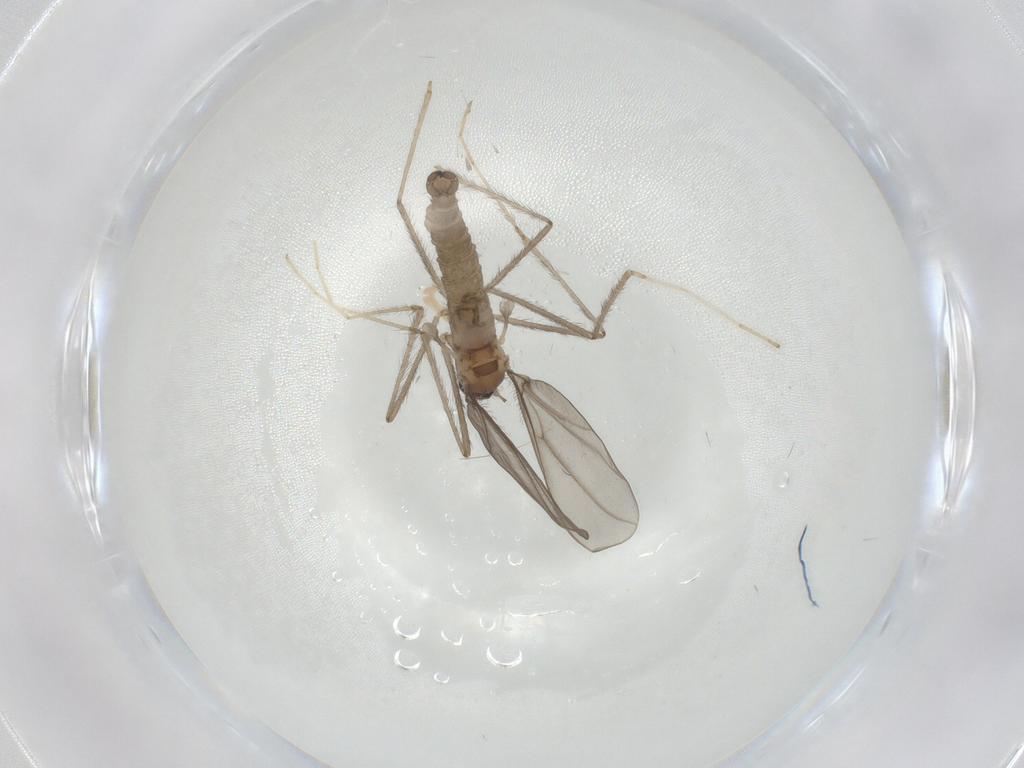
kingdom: Animalia
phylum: Arthropoda
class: Insecta
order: Diptera
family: Cecidomyiidae
